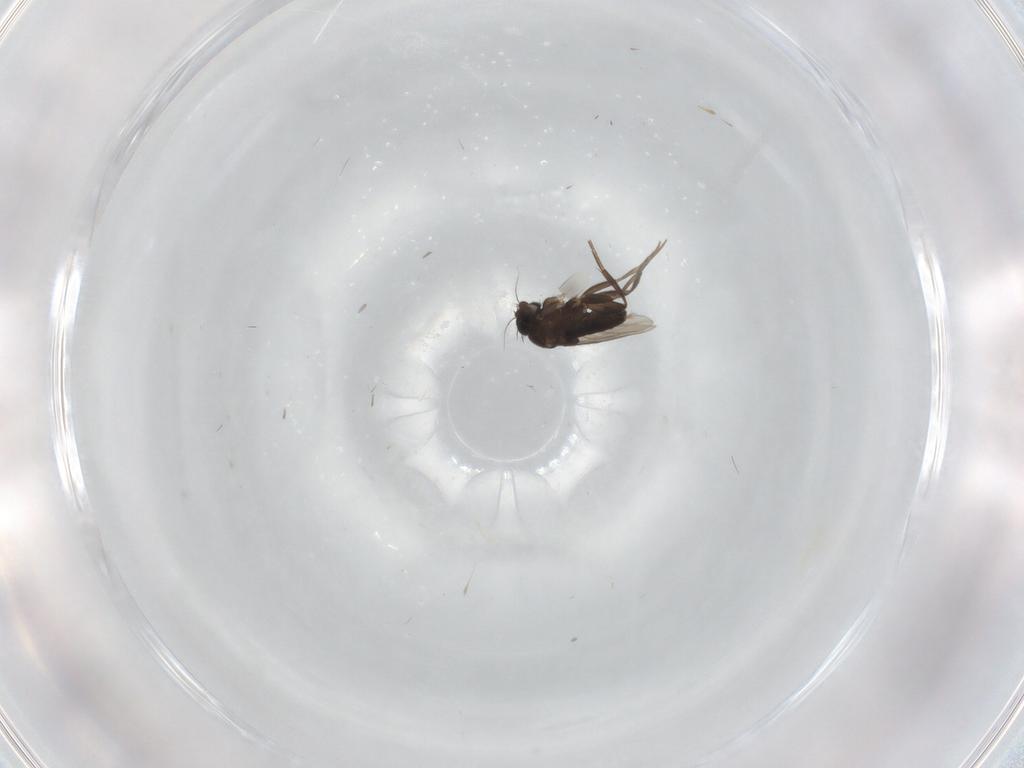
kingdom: Animalia
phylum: Arthropoda
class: Insecta
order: Diptera
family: Phoridae
